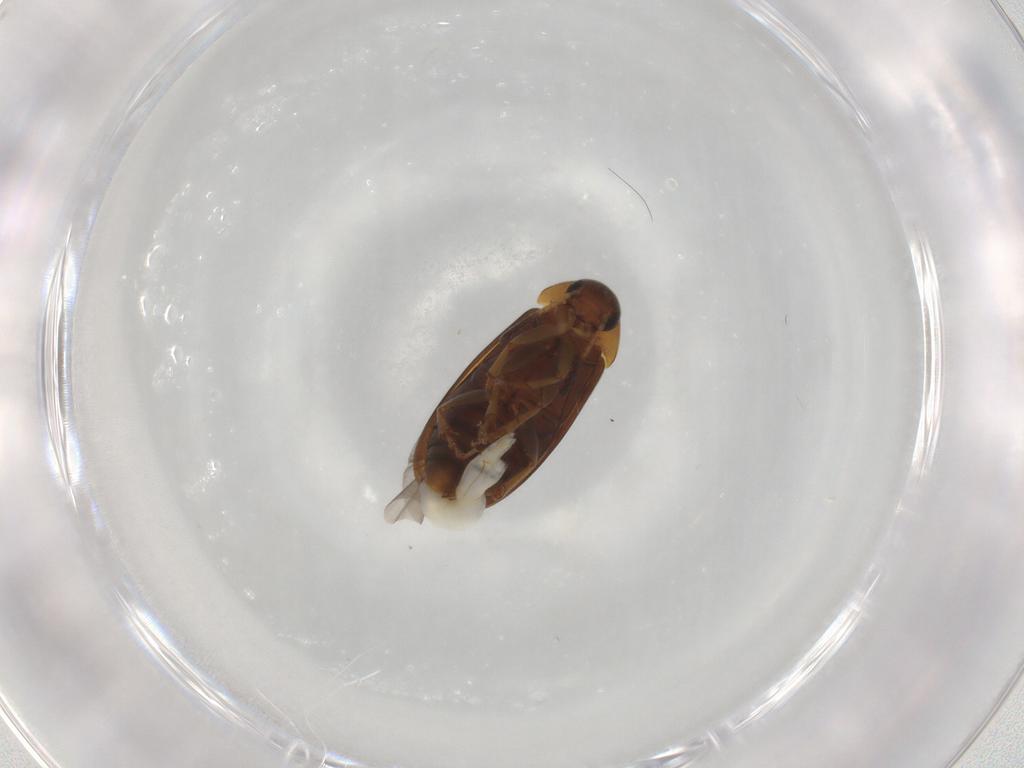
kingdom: Animalia
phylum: Arthropoda
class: Insecta
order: Coleoptera
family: Scraptiidae
